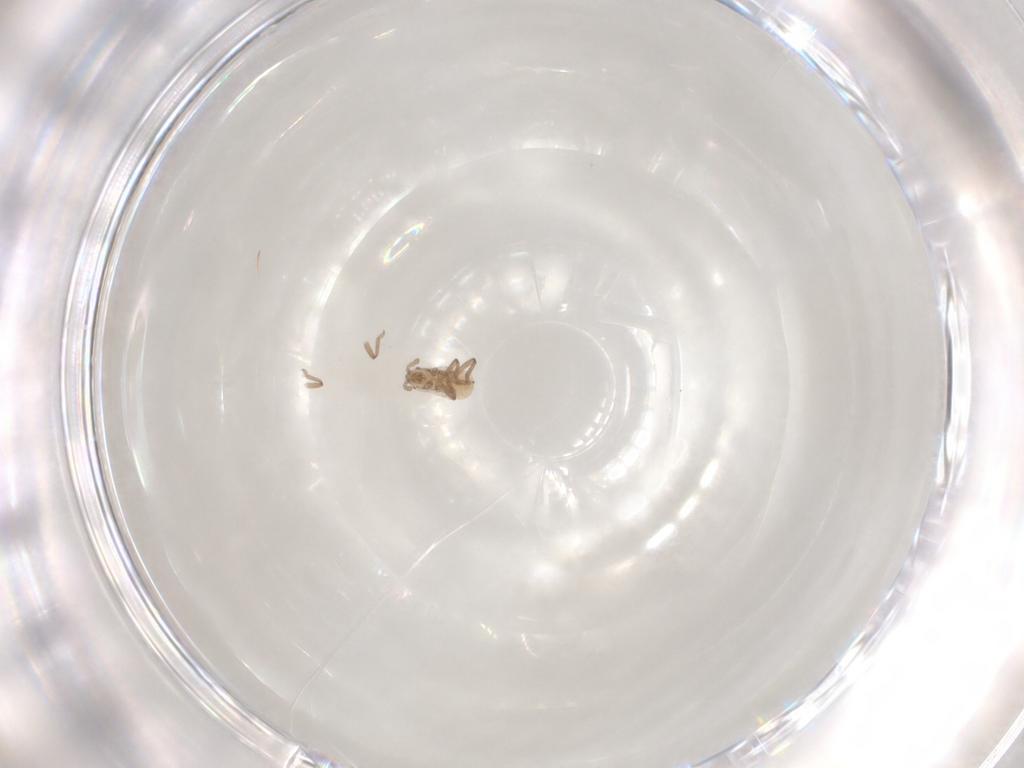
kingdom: Animalia
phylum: Arthropoda
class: Insecta
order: Hemiptera
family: Aphididae
